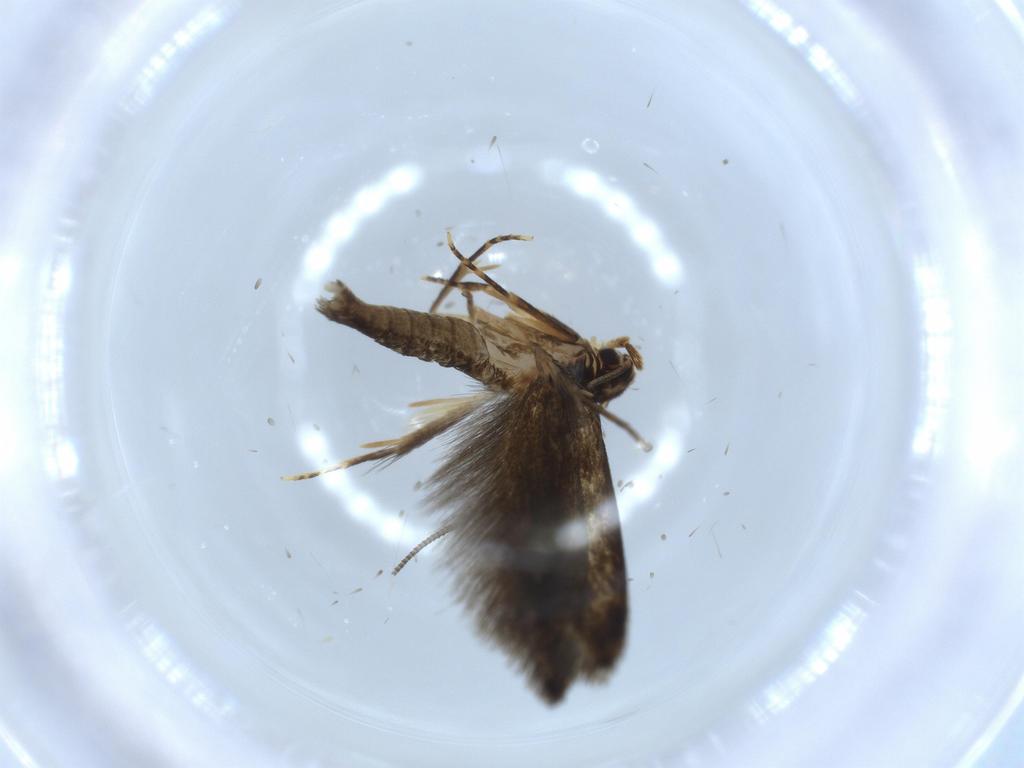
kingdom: Animalia
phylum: Arthropoda
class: Insecta
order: Lepidoptera
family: Tineidae
